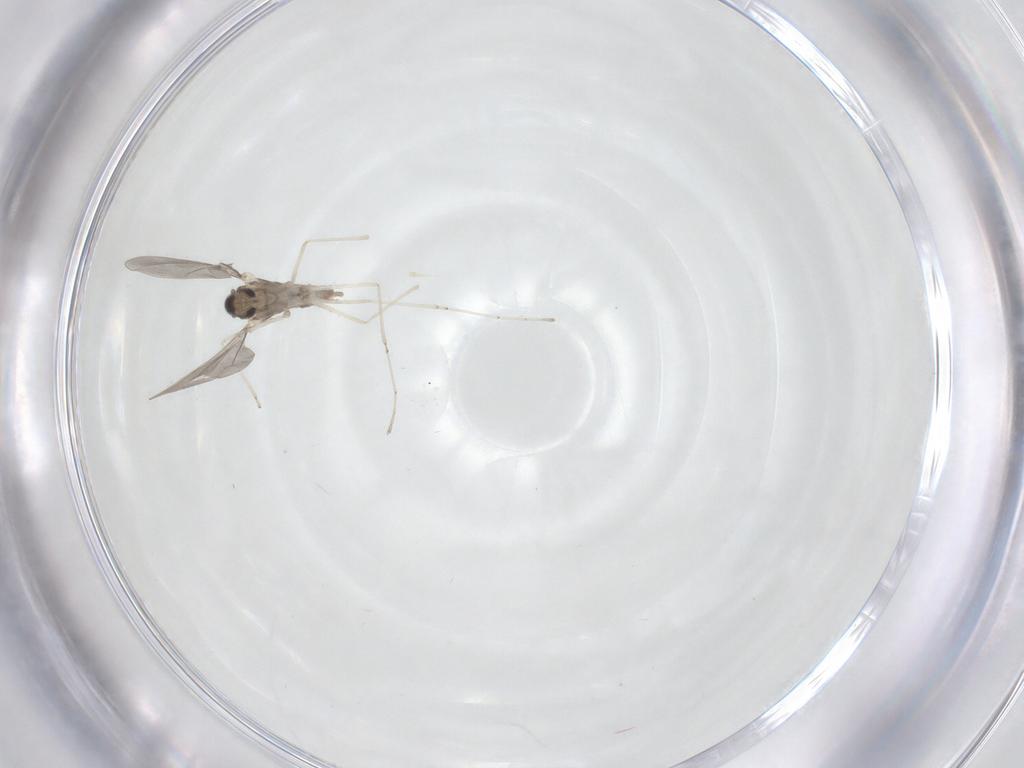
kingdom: Animalia
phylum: Arthropoda
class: Insecta
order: Diptera
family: Cecidomyiidae
